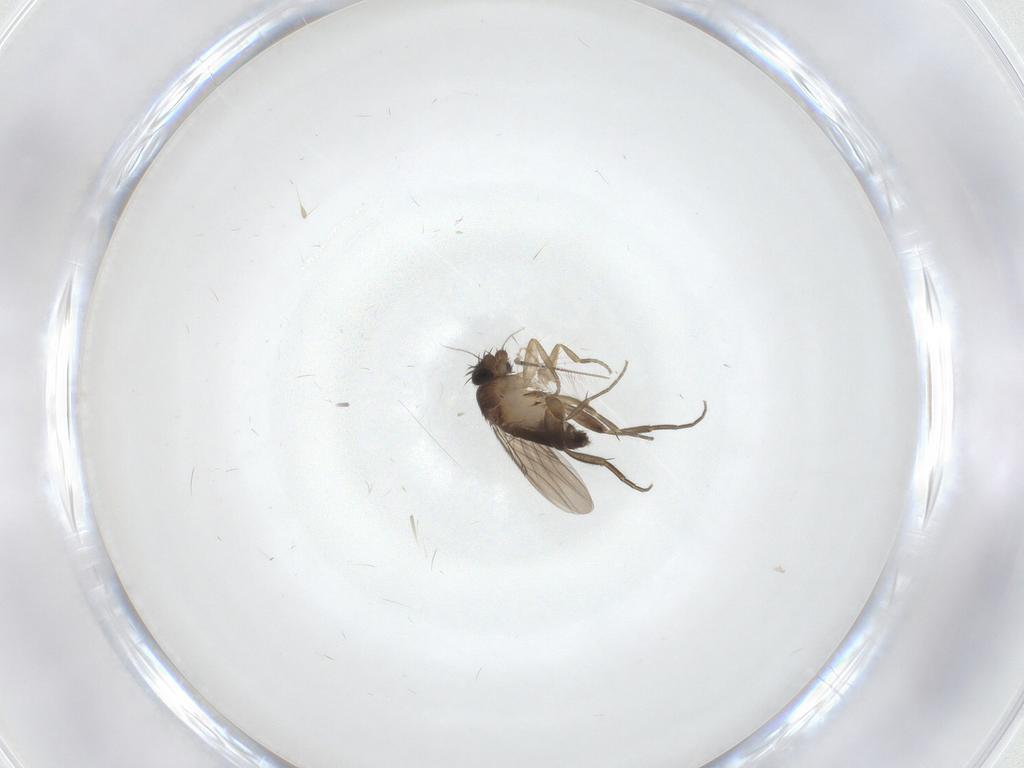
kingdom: Animalia
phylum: Arthropoda
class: Insecta
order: Diptera
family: Phoridae
